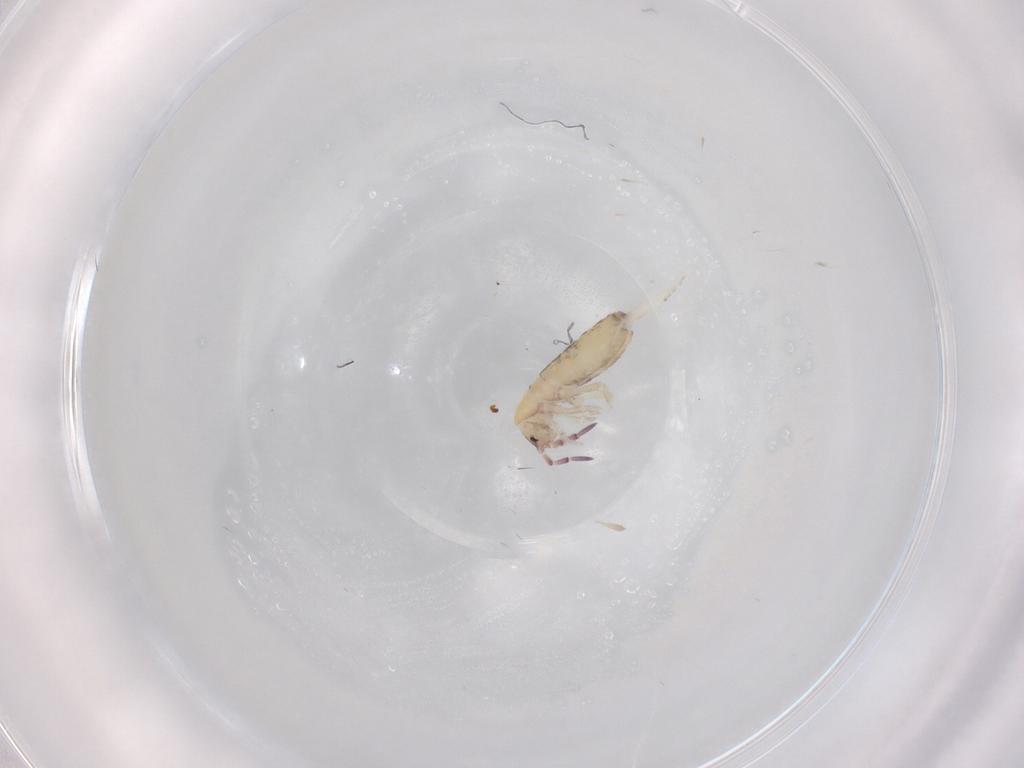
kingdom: Animalia
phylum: Arthropoda
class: Collembola
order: Entomobryomorpha
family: Entomobryidae
